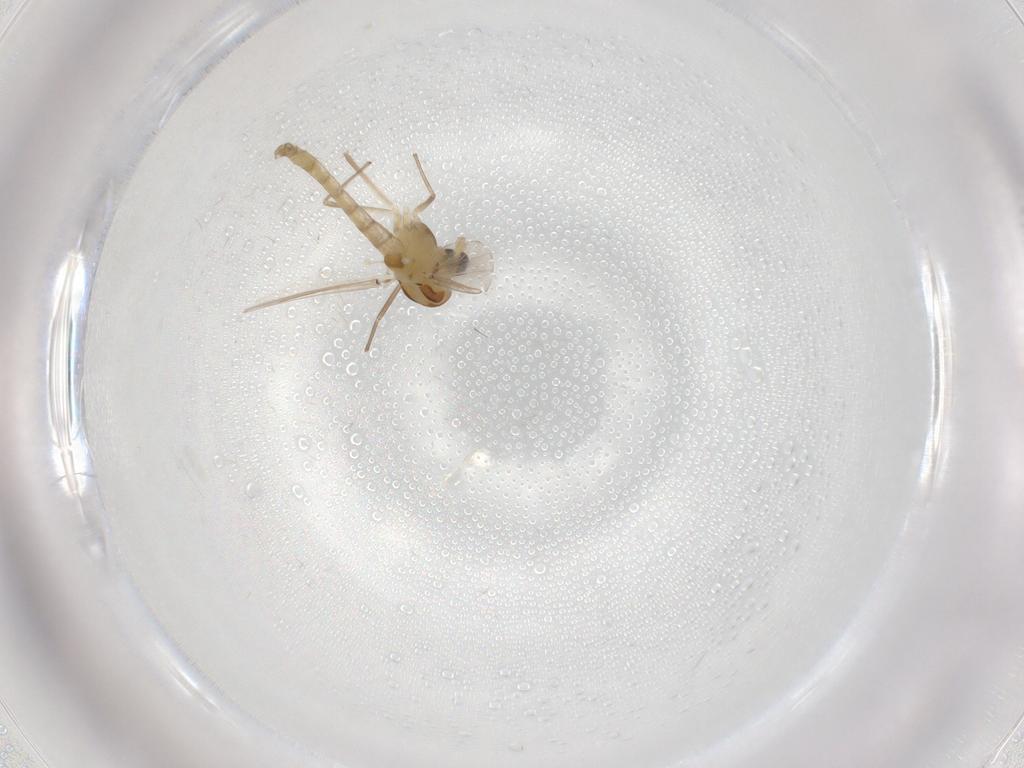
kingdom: Animalia
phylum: Arthropoda
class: Insecta
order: Diptera
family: Chironomidae
